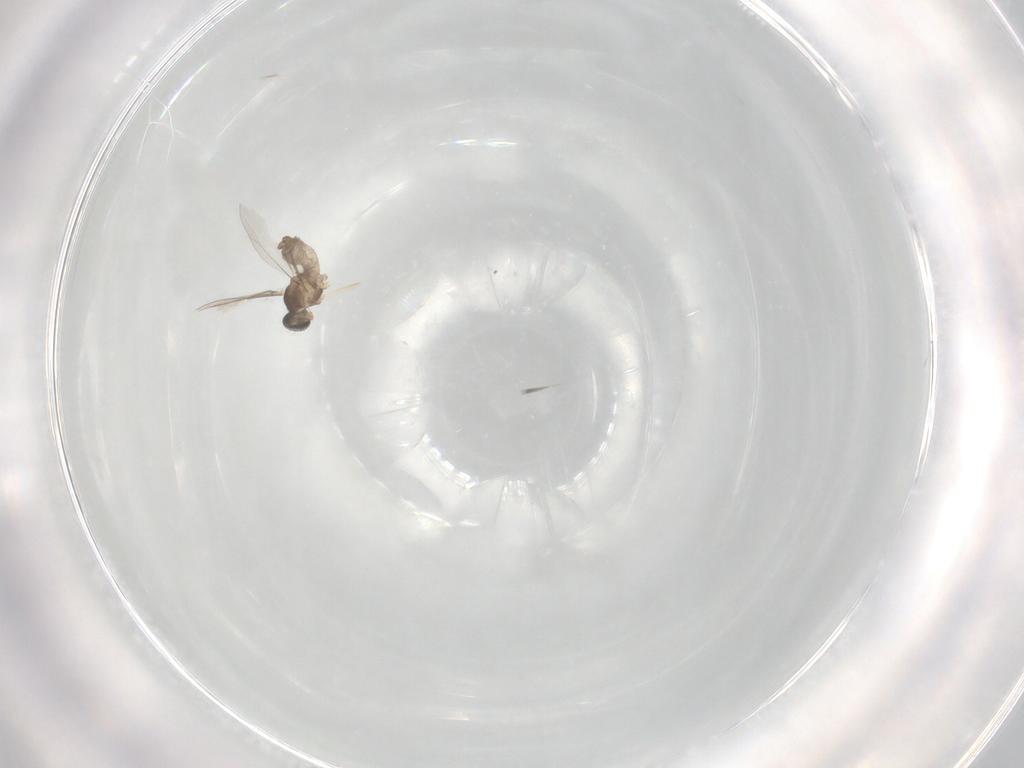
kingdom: Animalia
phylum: Arthropoda
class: Insecta
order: Diptera
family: Cecidomyiidae
